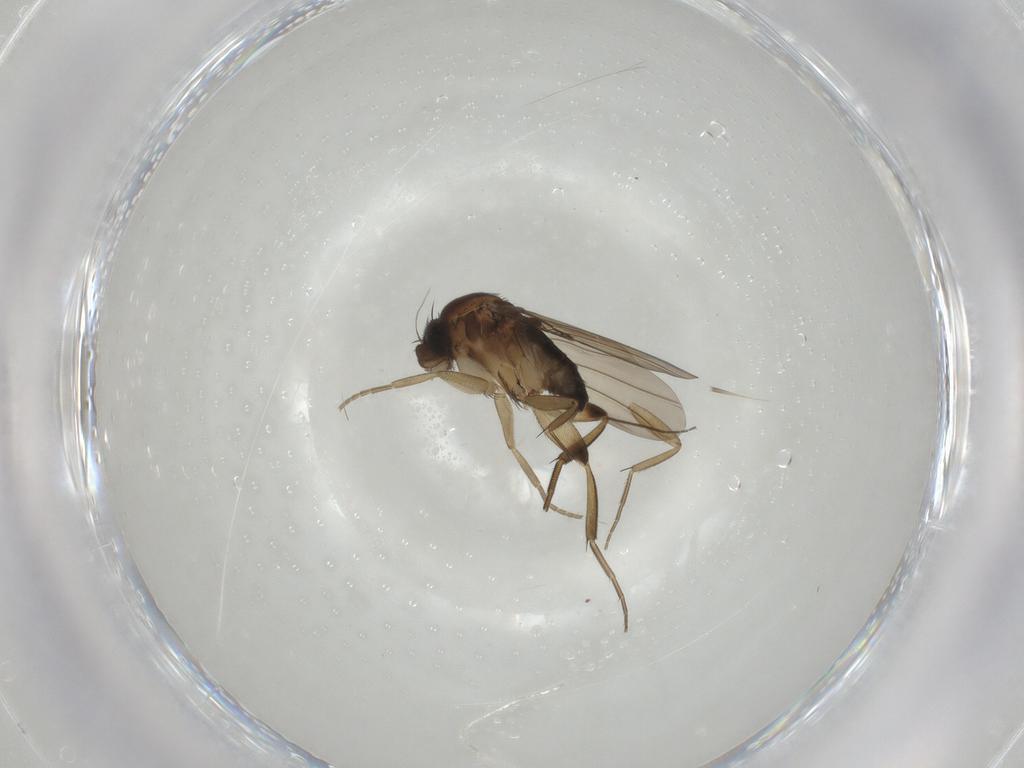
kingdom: Animalia
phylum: Arthropoda
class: Insecta
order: Diptera
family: Phoridae
